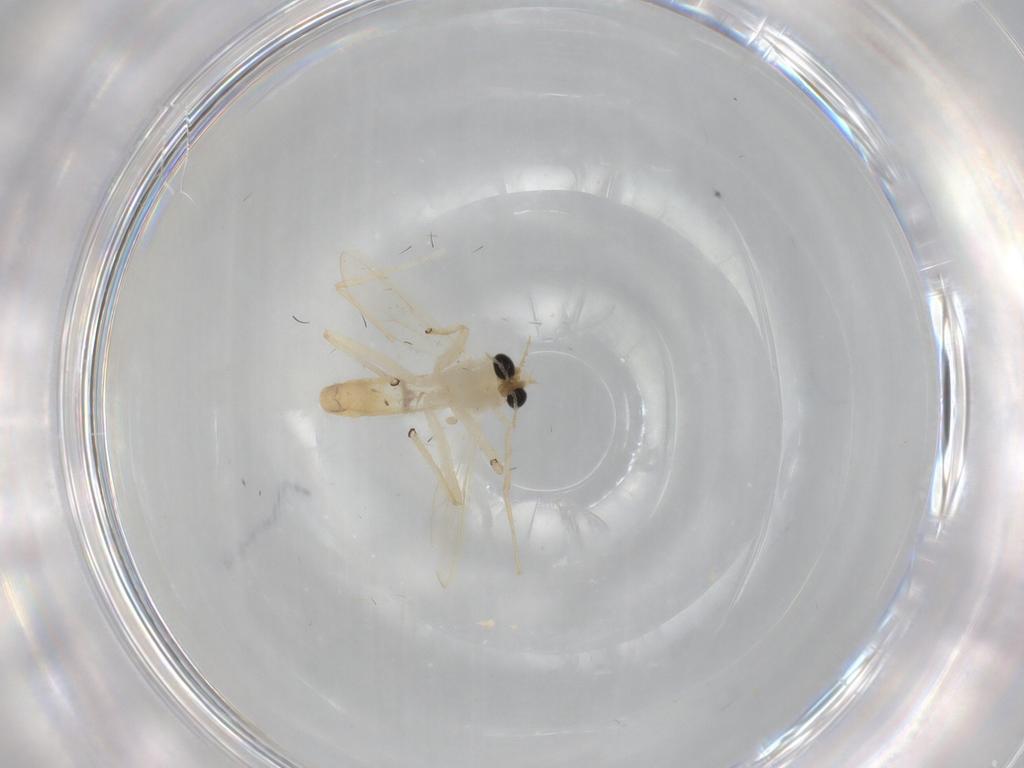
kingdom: Animalia
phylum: Arthropoda
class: Insecta
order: Diptera
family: Chironomidae
